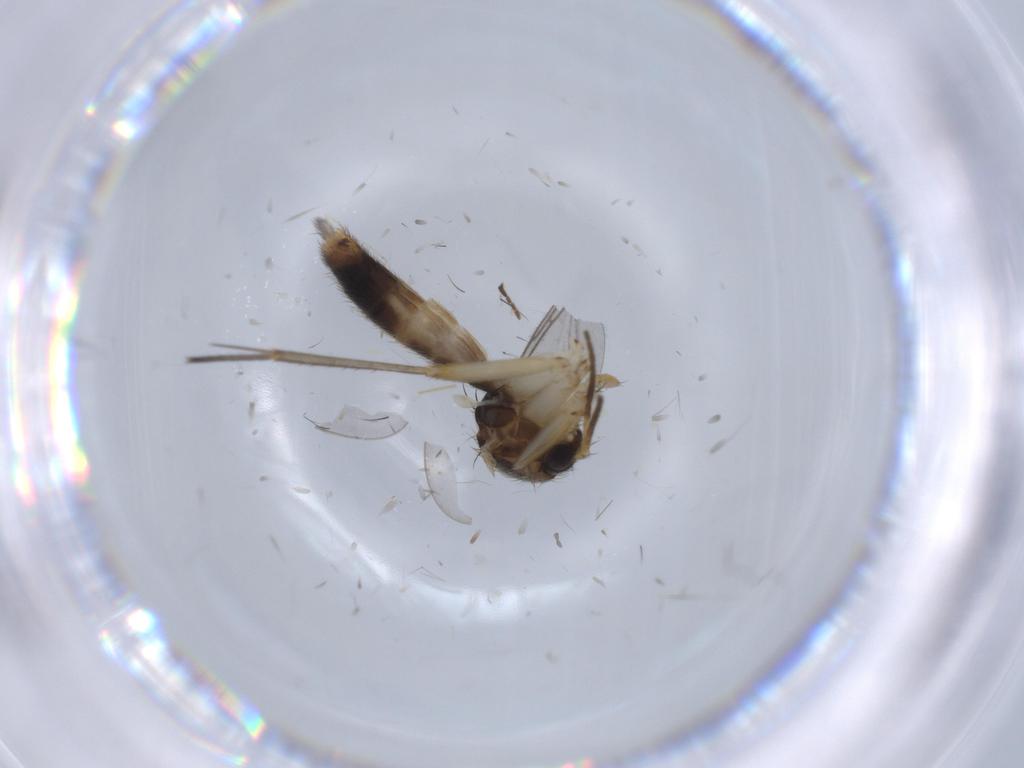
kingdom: Animalia
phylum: Arthropoda
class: Insecta
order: Diptera
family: Mycetophilidae
